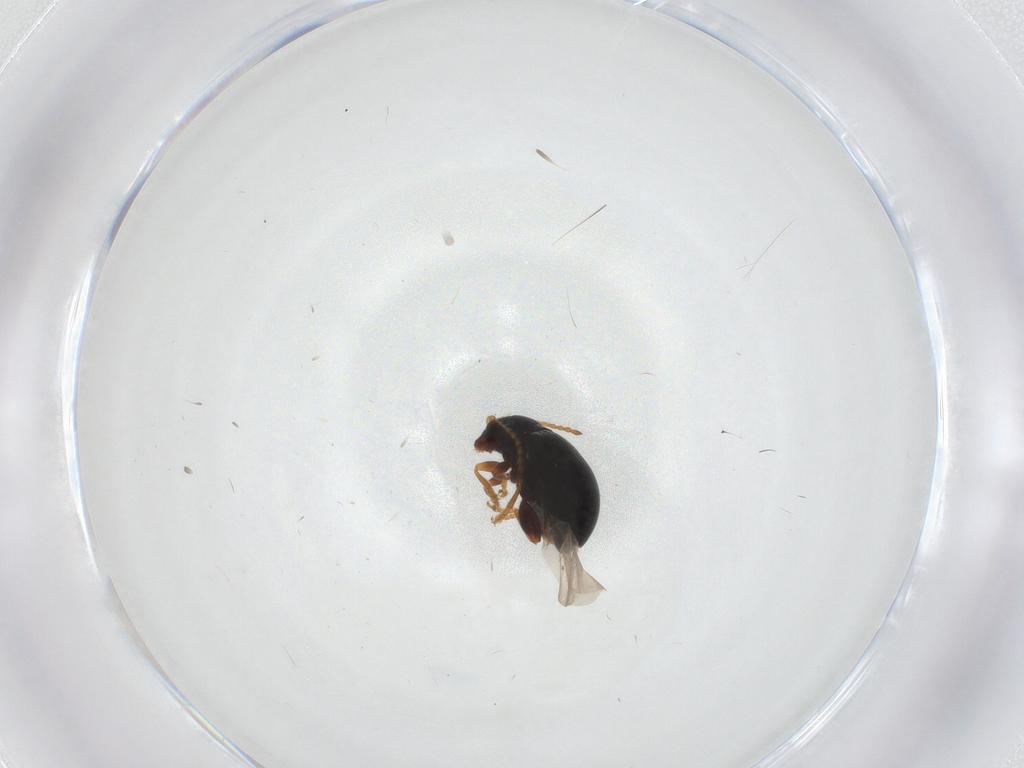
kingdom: Animalia
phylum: Arthropoda
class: Insecta
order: Coleoptera
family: Chrysomelidae
